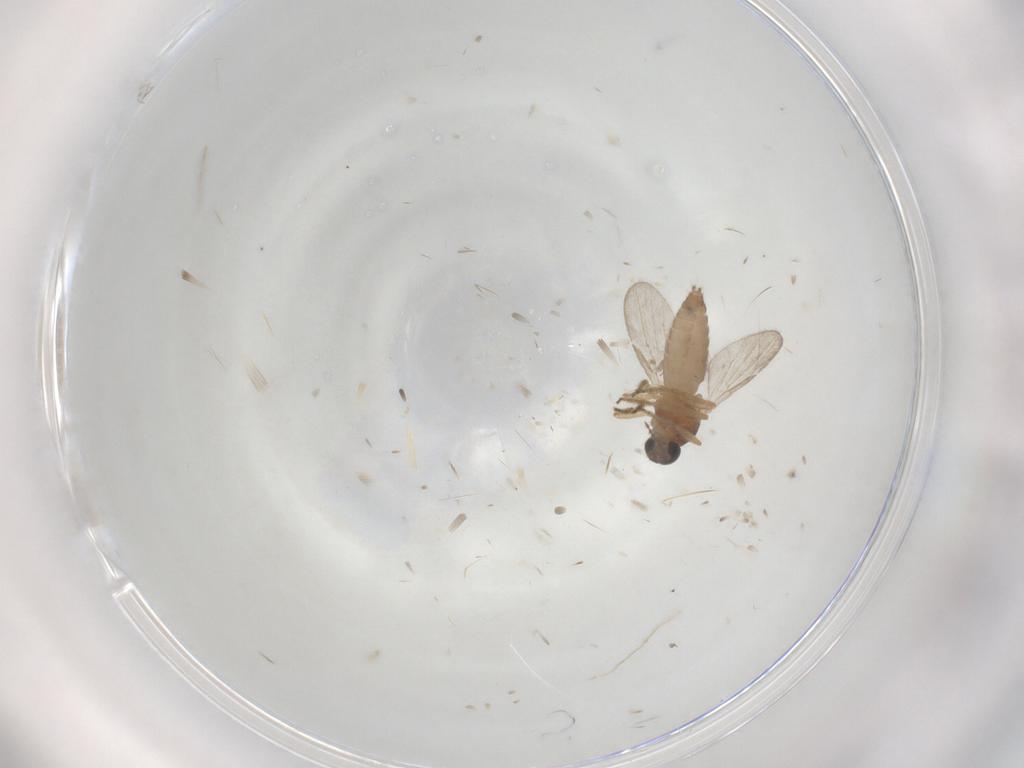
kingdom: Animalia
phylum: Arthropoda
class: Insecta
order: Diptera
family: Ceratopogonidae
